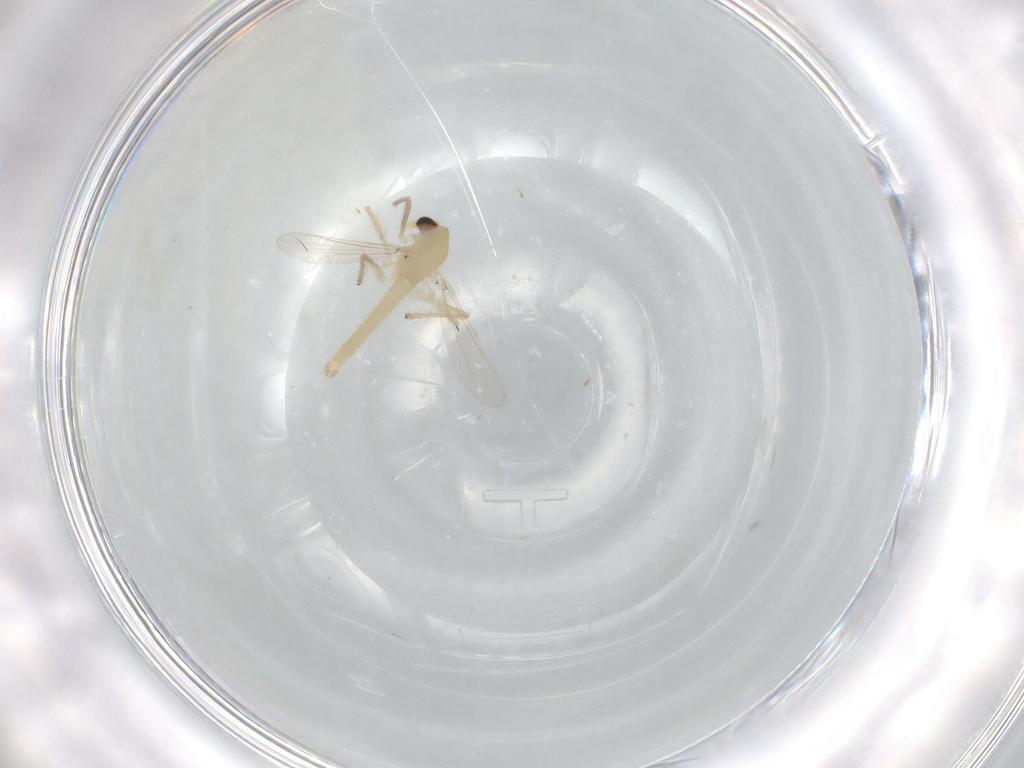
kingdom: Animalia
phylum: Arthropoda
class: Insecta
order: Diptera
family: Chironomidae
